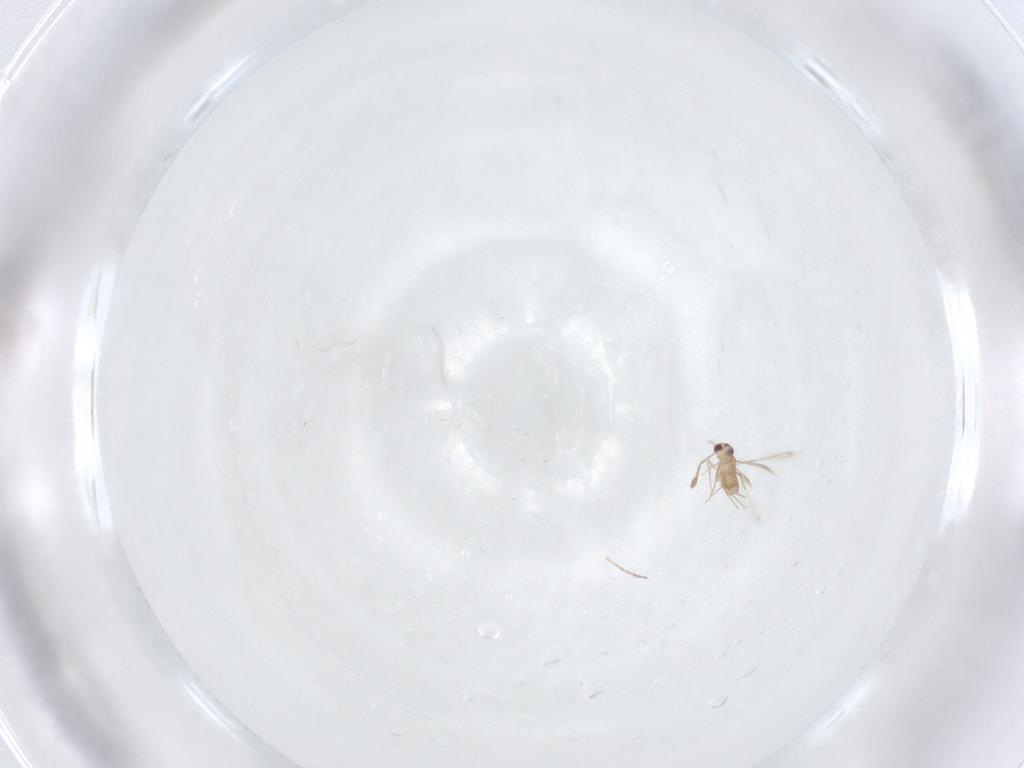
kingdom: Animalia
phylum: Arthropoda
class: Insecta
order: Hymenoptera
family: Mymaridae
